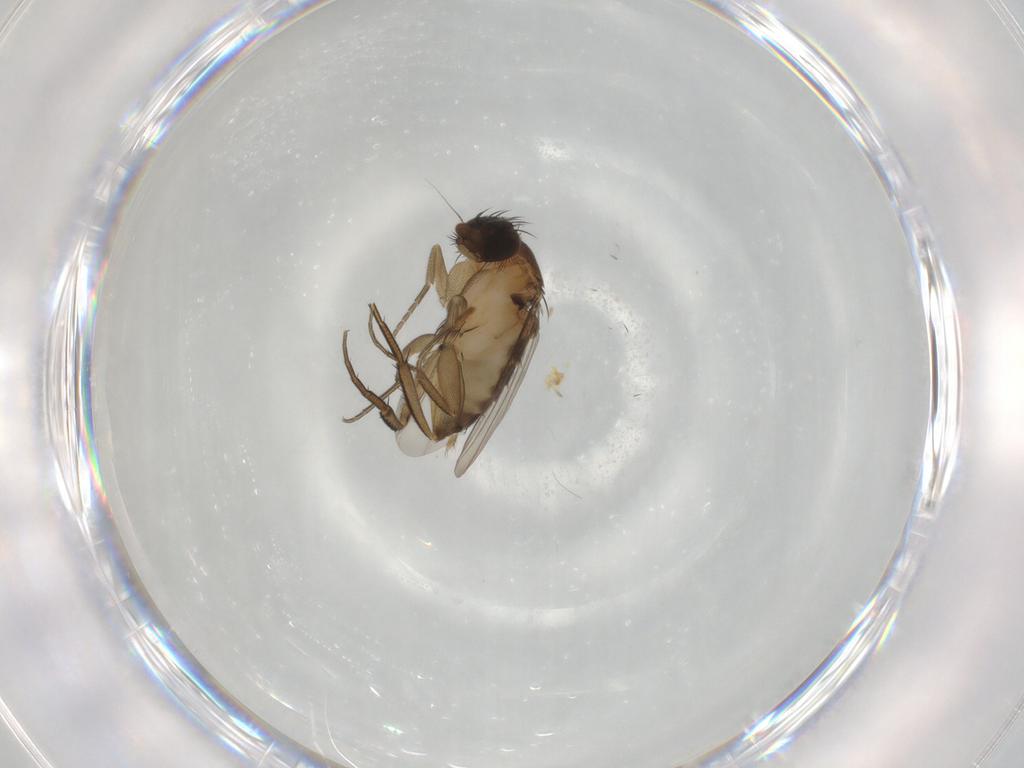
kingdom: Animalia
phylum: Arthropoda
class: Insecta
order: Diptera
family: Phoridae
